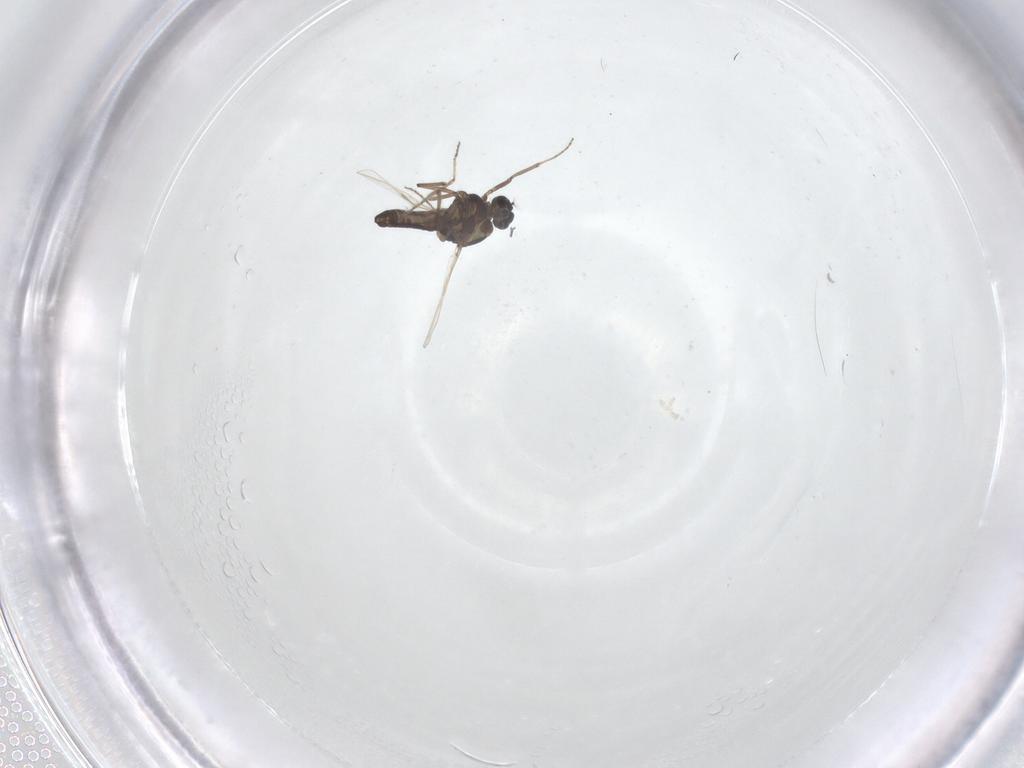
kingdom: Animalia
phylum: Arthropoda
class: Insecta
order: Diptera
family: Ceratopogonidae
